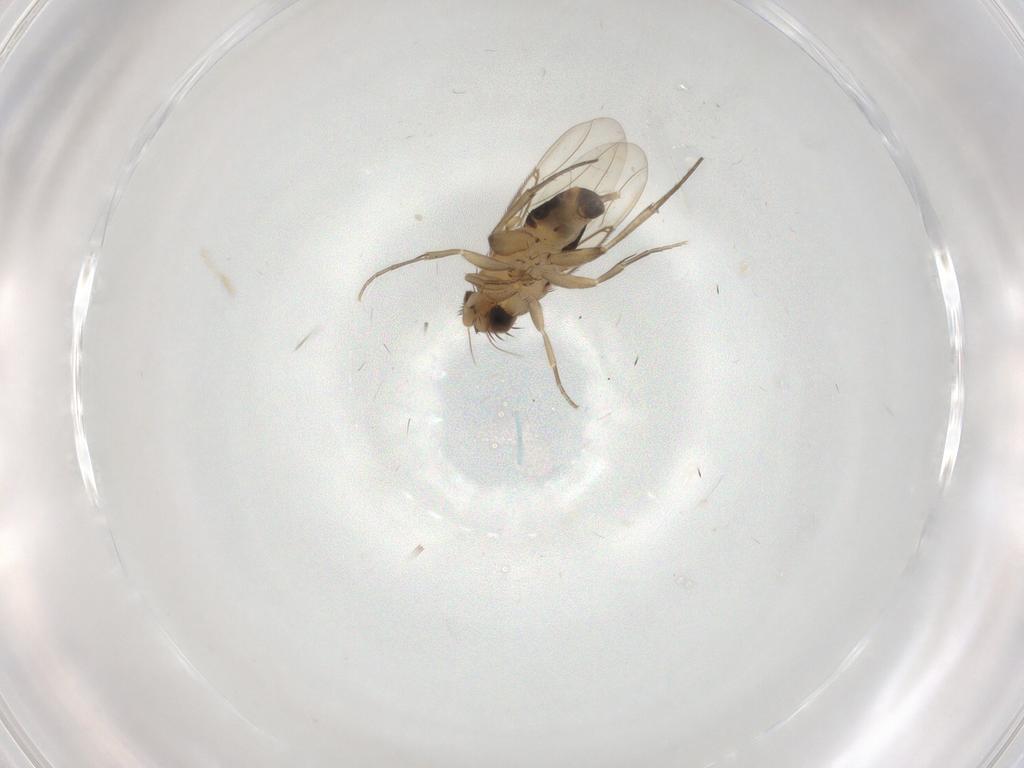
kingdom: Animalia
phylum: Arthropoda
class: Insecta
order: Diptera
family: Phoridae
